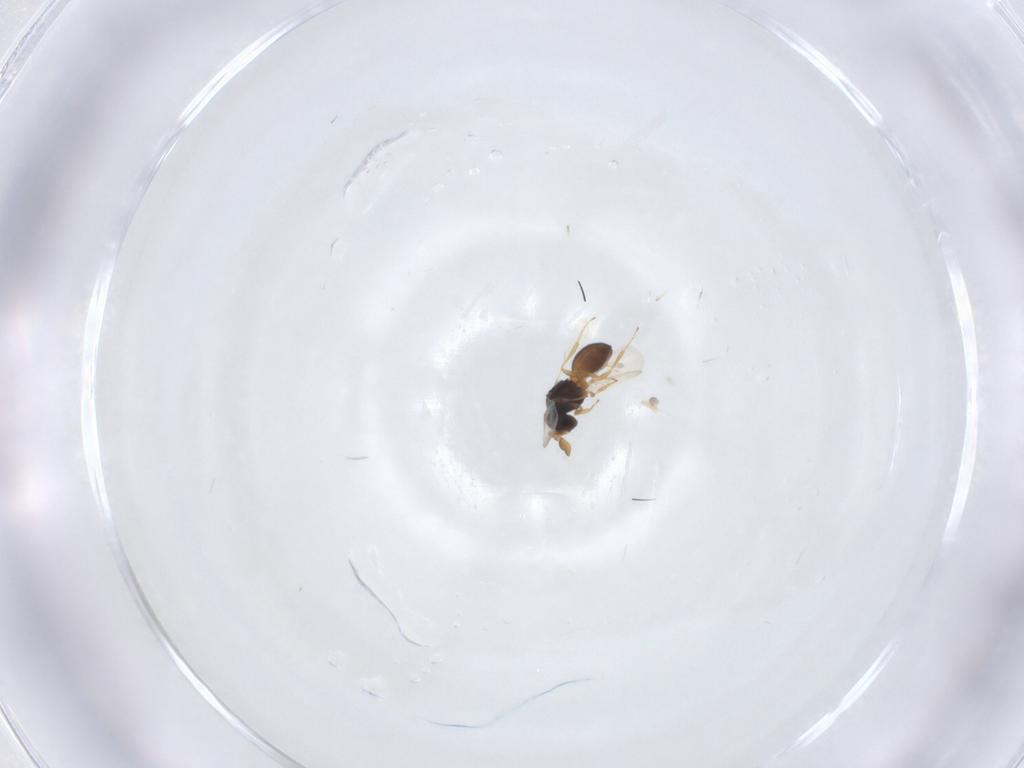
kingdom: Animalia
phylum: Arthropoda
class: Insecta
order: Hymenoptera
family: Scelionidae
